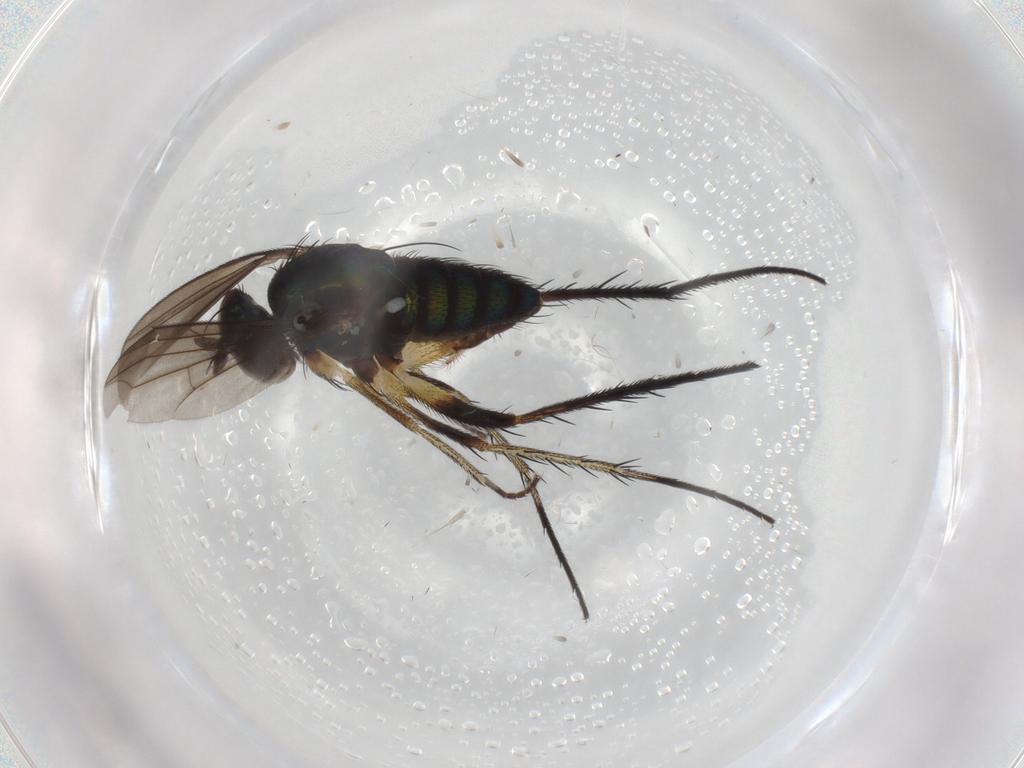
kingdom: Animalia
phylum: Arthropoda
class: Insecta
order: Diptera
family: Dolichopodidae
